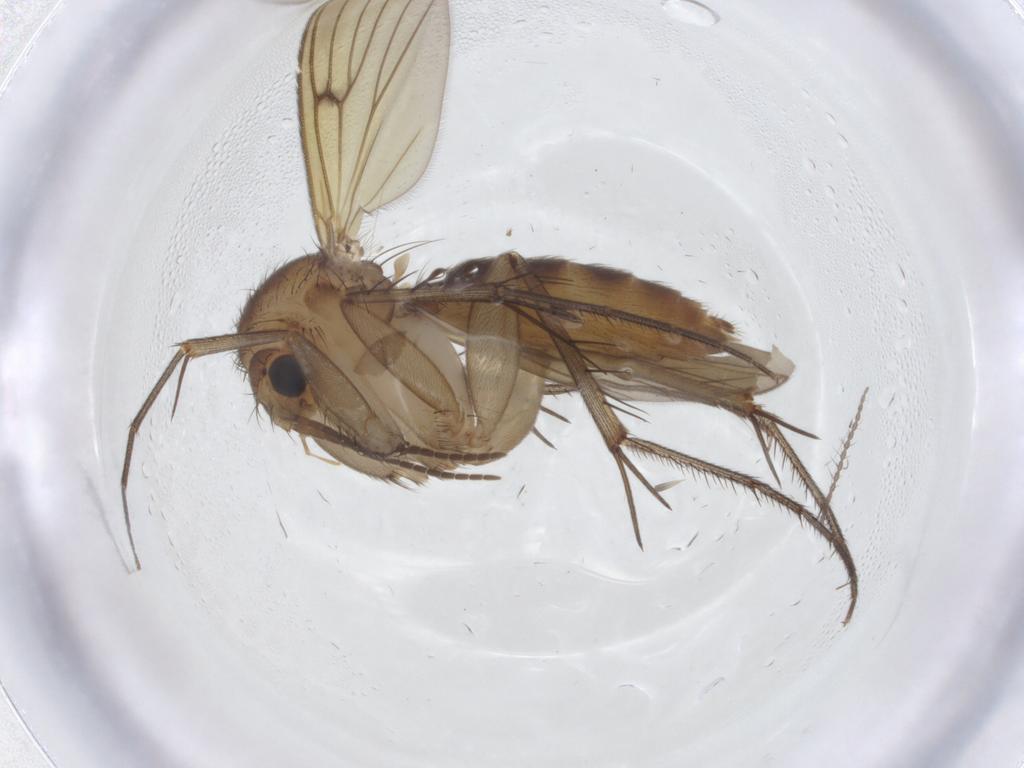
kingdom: Animalia
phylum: Arthropoda
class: Insecta
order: Diptera
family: Limoniidae
